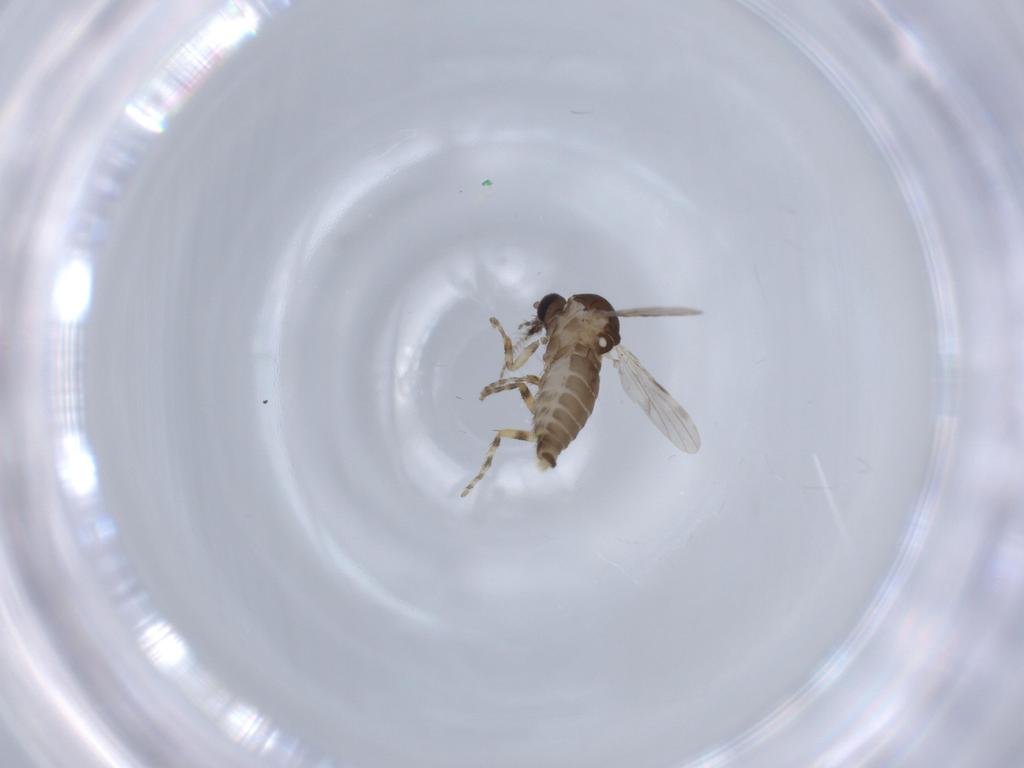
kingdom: Animalia
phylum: Arthropoda
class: Insecta
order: Diptera
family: Ceratopogonidae
